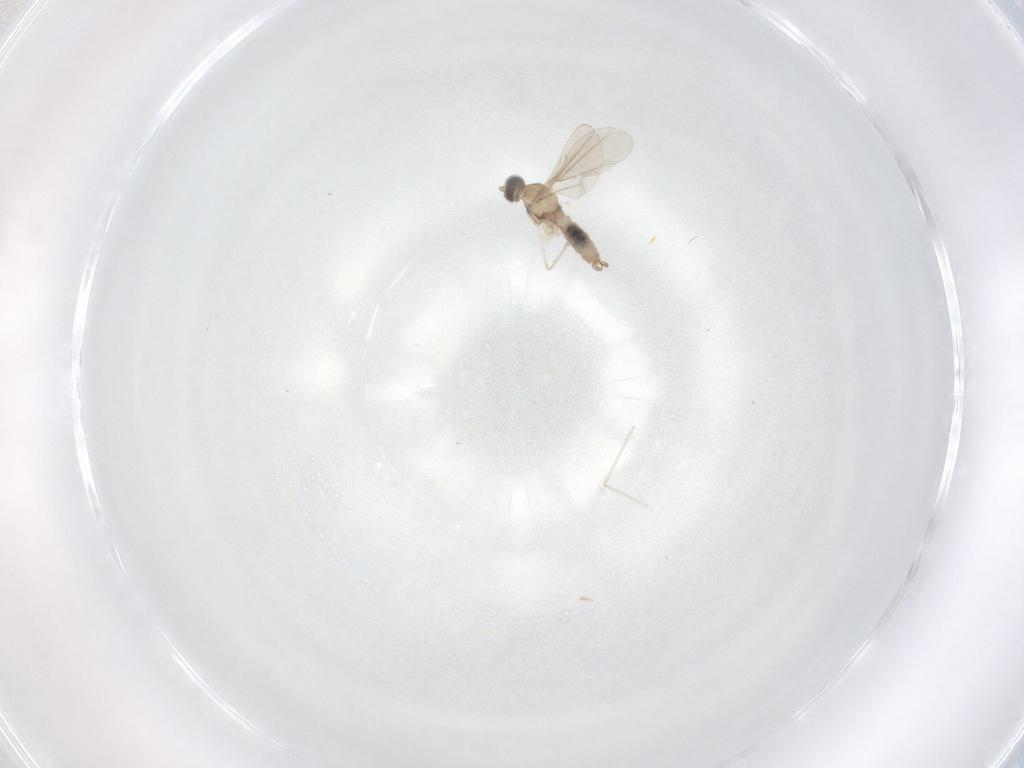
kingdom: Animalia
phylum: Arthropoda
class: Insecta
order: Diptera
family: Cecidomyiidae
